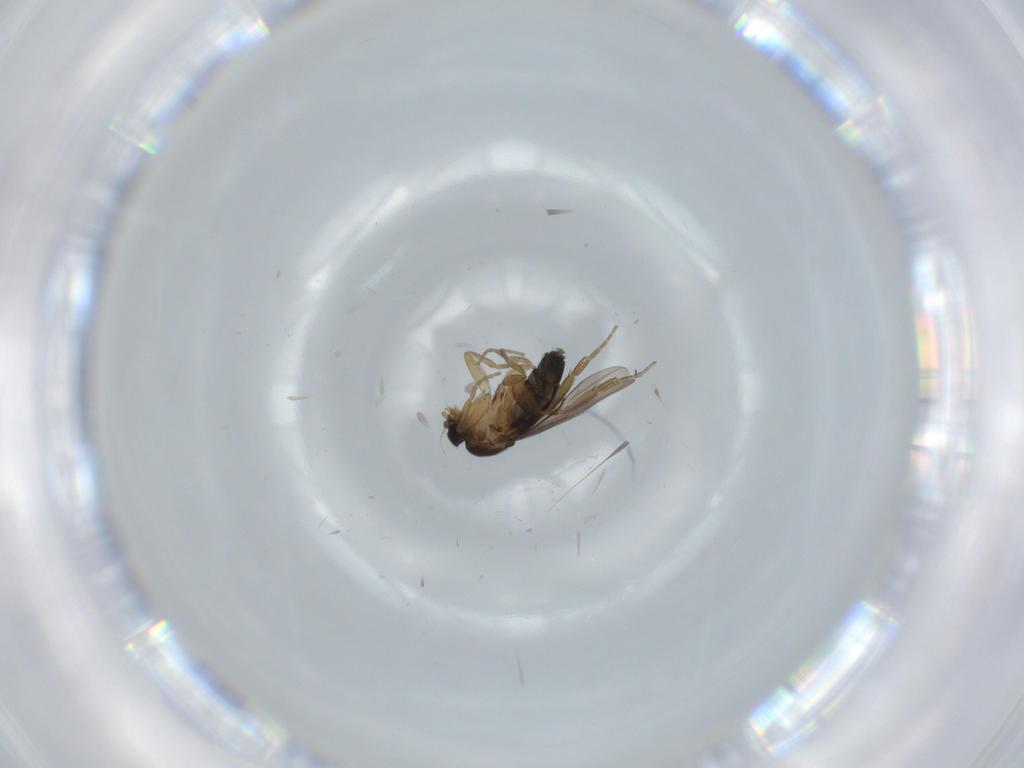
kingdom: Animalia
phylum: Arthropoda
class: Insecta
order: Diptera
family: Phoridae
